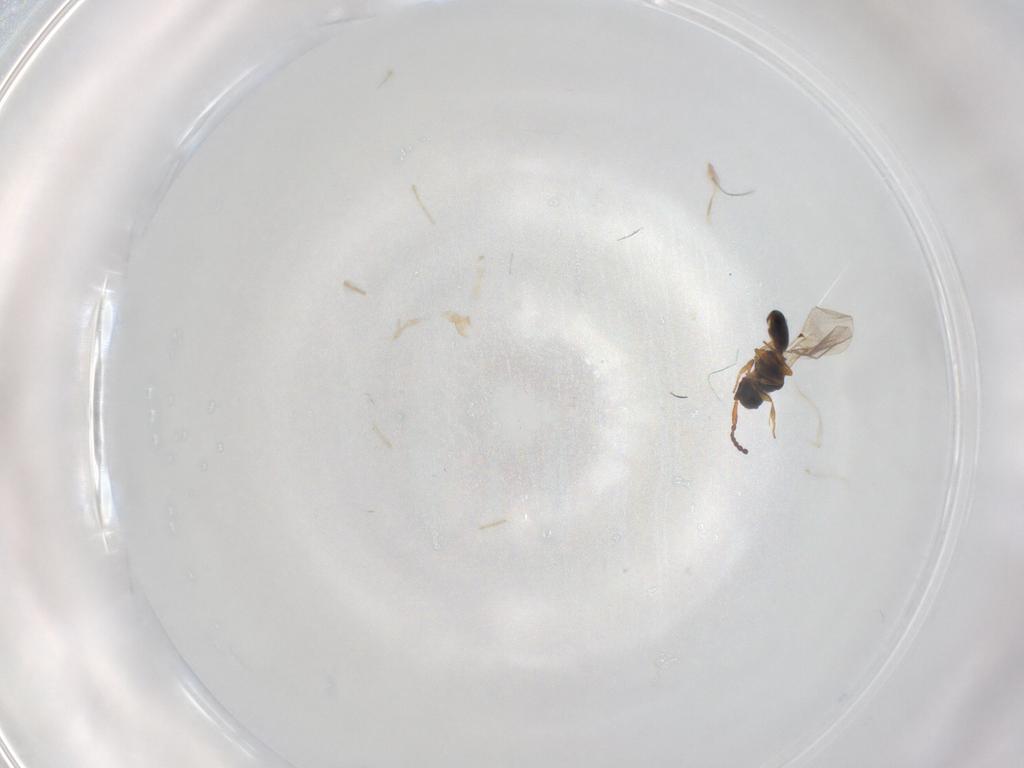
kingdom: Animalia
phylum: Arthropoda
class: Insecta
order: Hymenoptera
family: Diapriidae
